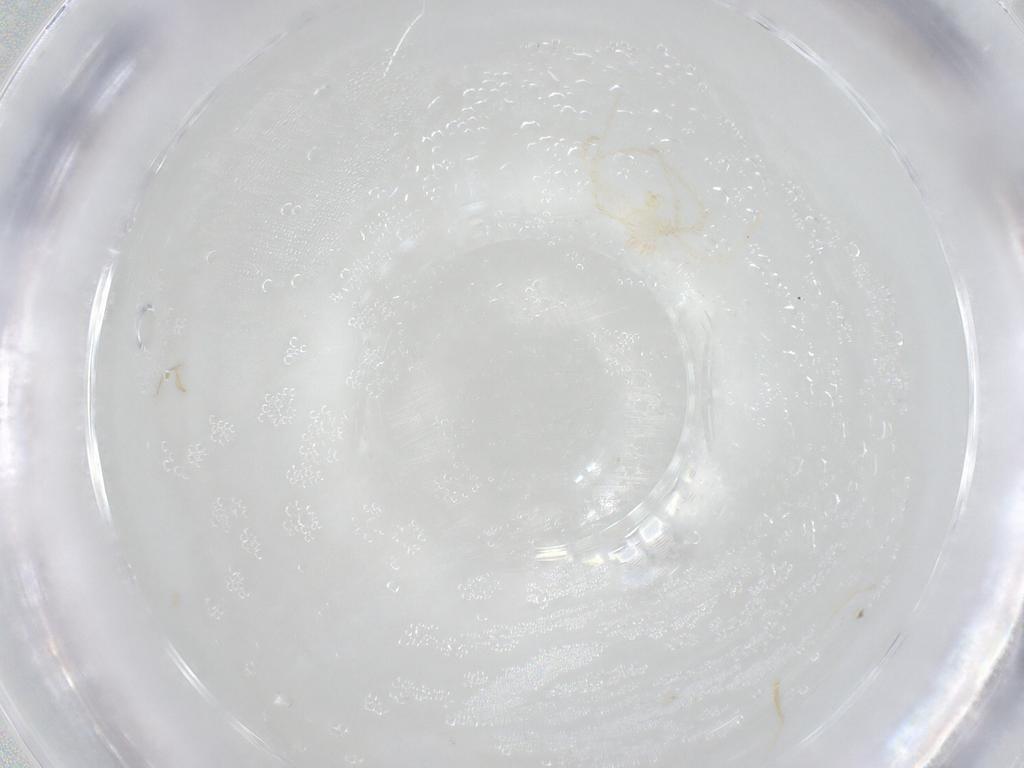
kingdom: Animalia
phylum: Arthropoda
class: Arachnida
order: Trombidiformes
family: Erythraeidae
